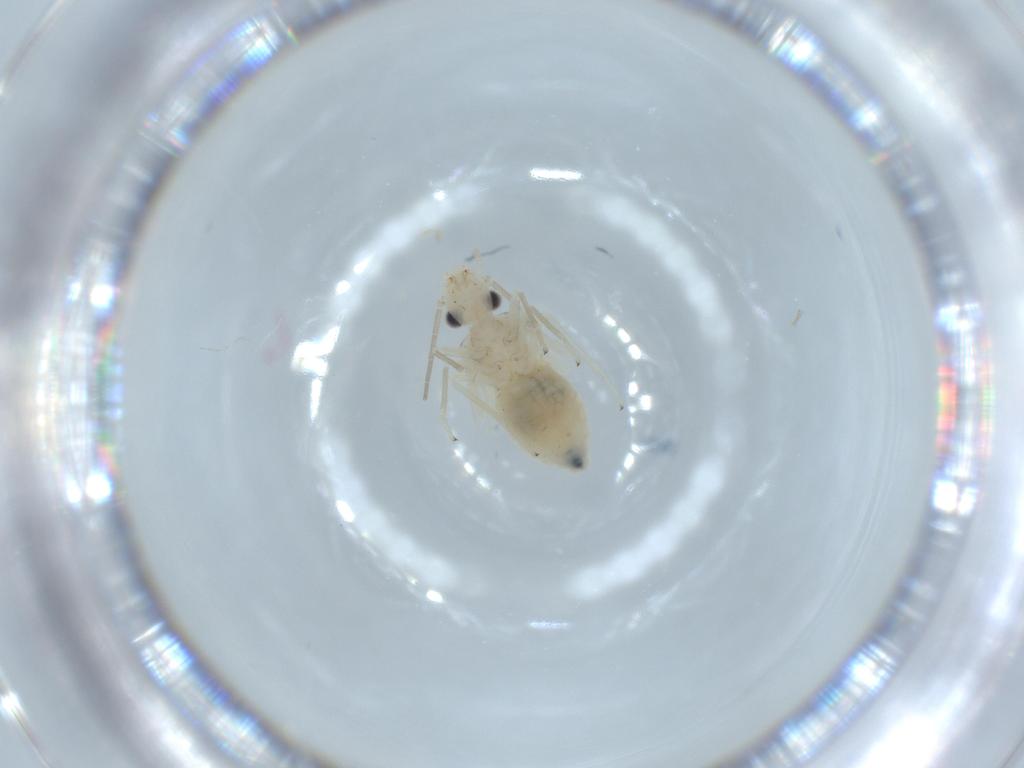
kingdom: Animalia
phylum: Arthropoda
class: Insecta
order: Psocodea
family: Caeciliusidae
